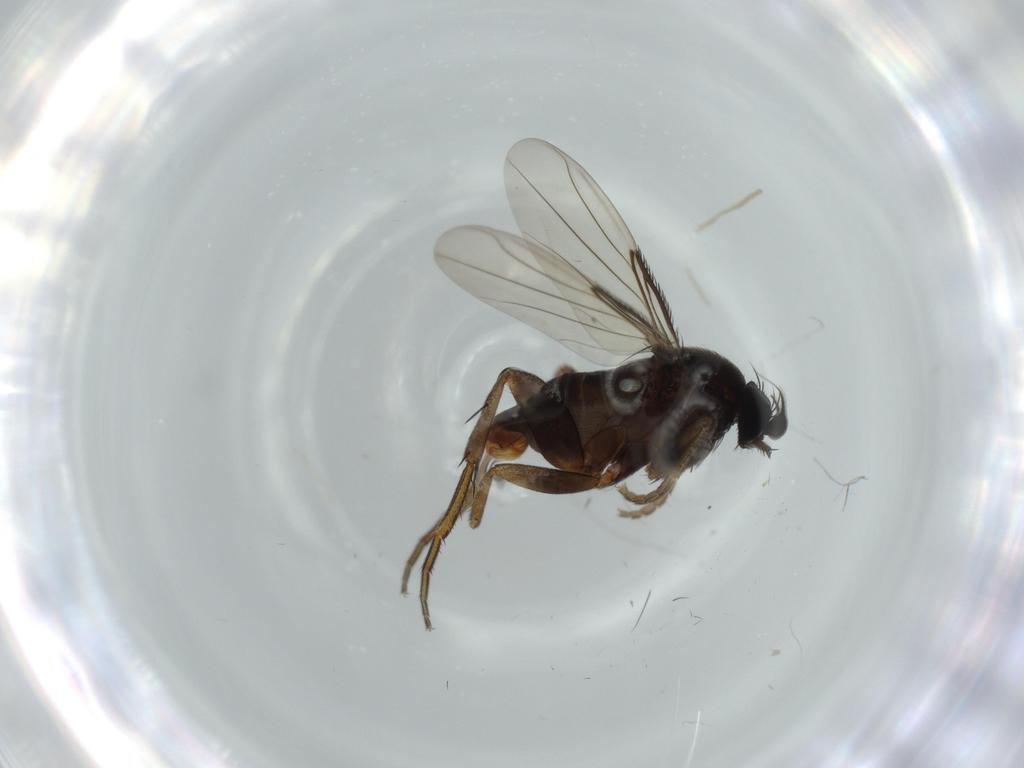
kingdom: Animalia
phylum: Arthropoda
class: Insecta
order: Diptera
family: Phoridae
